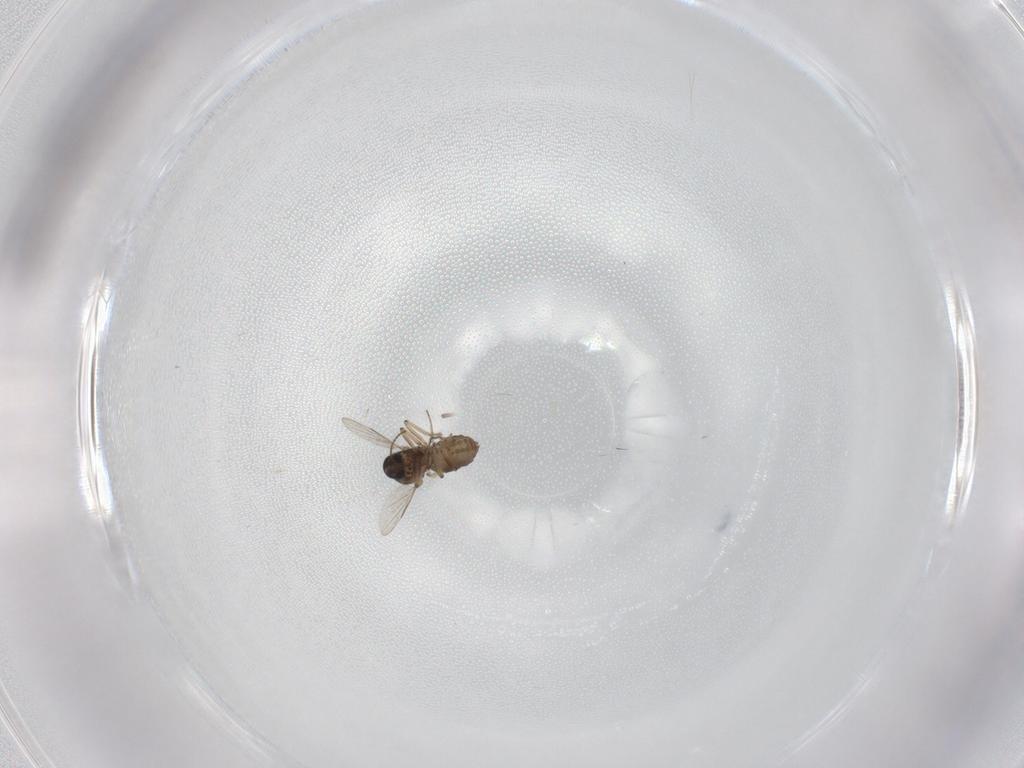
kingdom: Animalia
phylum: Arthropoda
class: Insecta
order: Diptera
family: Ceratopogonidae
